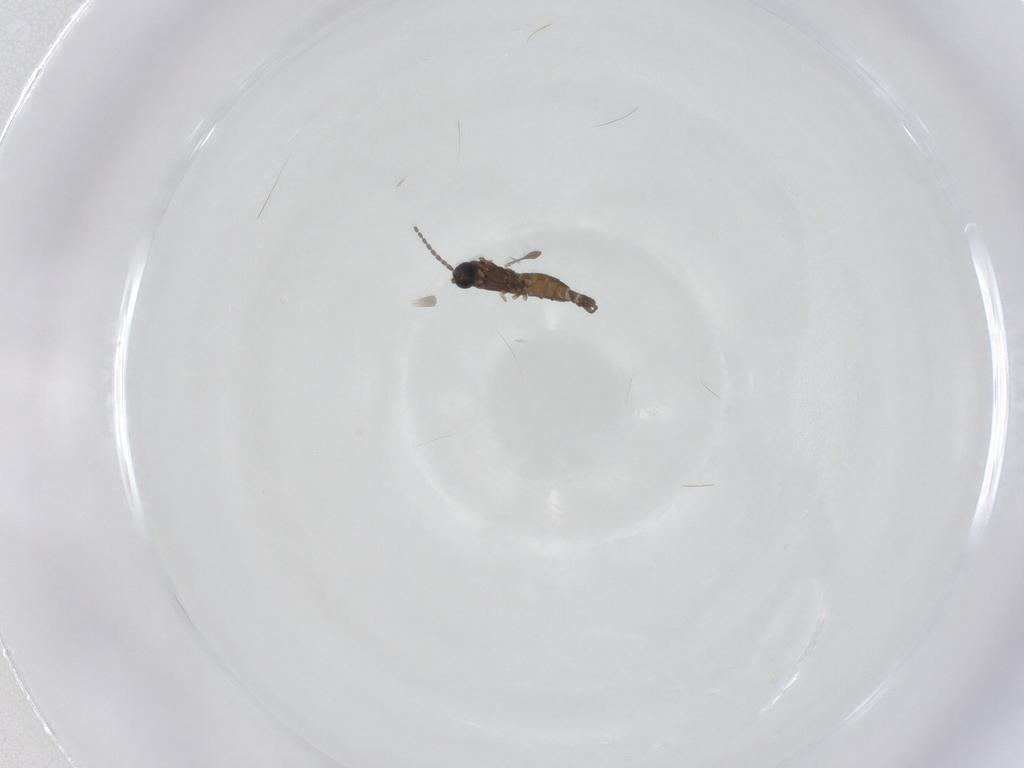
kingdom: Animalia
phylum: Arthropoda
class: Insecta
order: Diptera
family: Sciaridae
